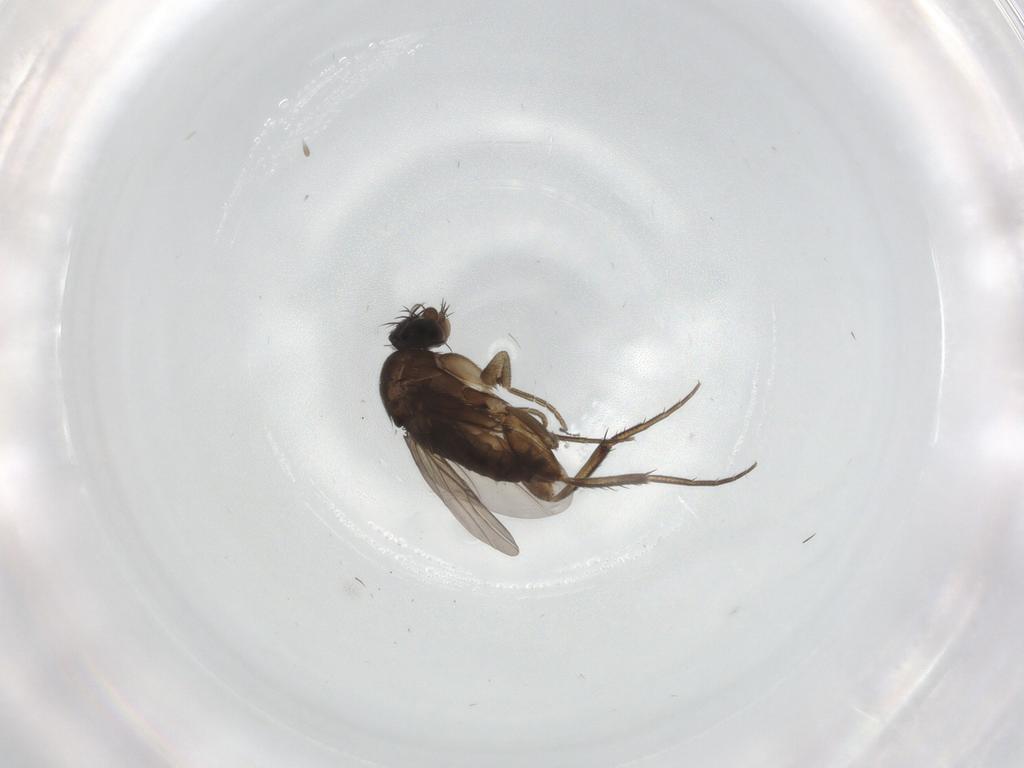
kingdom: Animalia
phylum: Arthropoda
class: Insecta
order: Diptera
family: Phoridae
